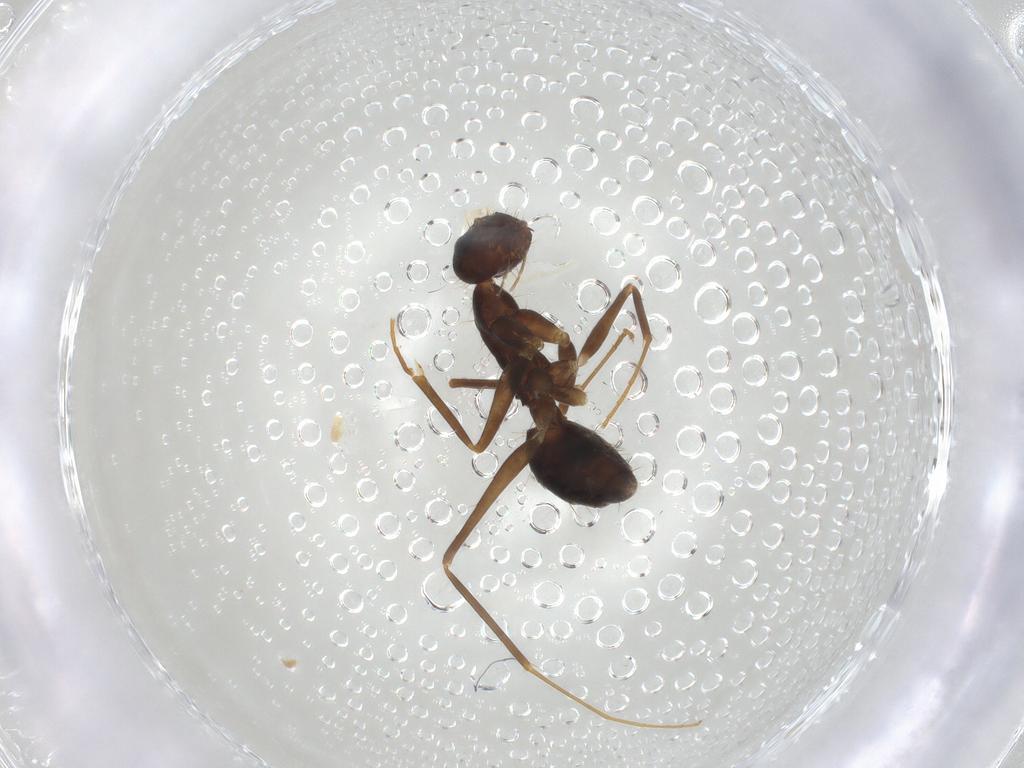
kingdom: Animalia
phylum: Arthropoda
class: Insecta
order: Hymenoptera
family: Formicidae
